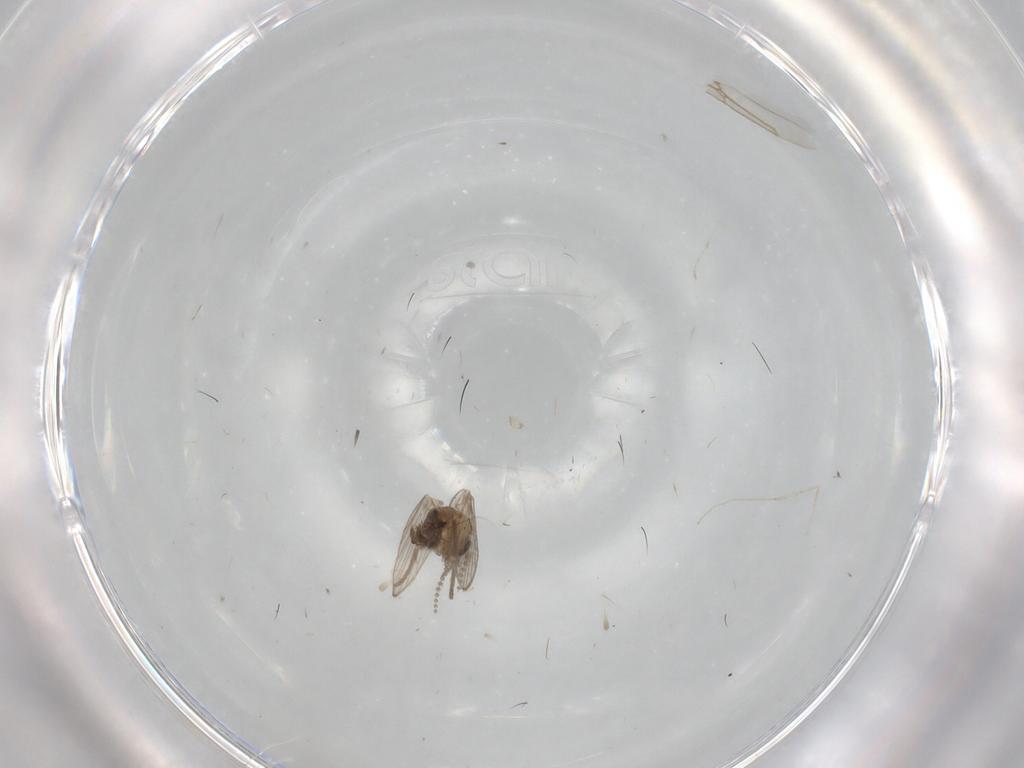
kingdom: Animalia
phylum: Arthropoda
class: Insecta
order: Diptera
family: Psychodidae
